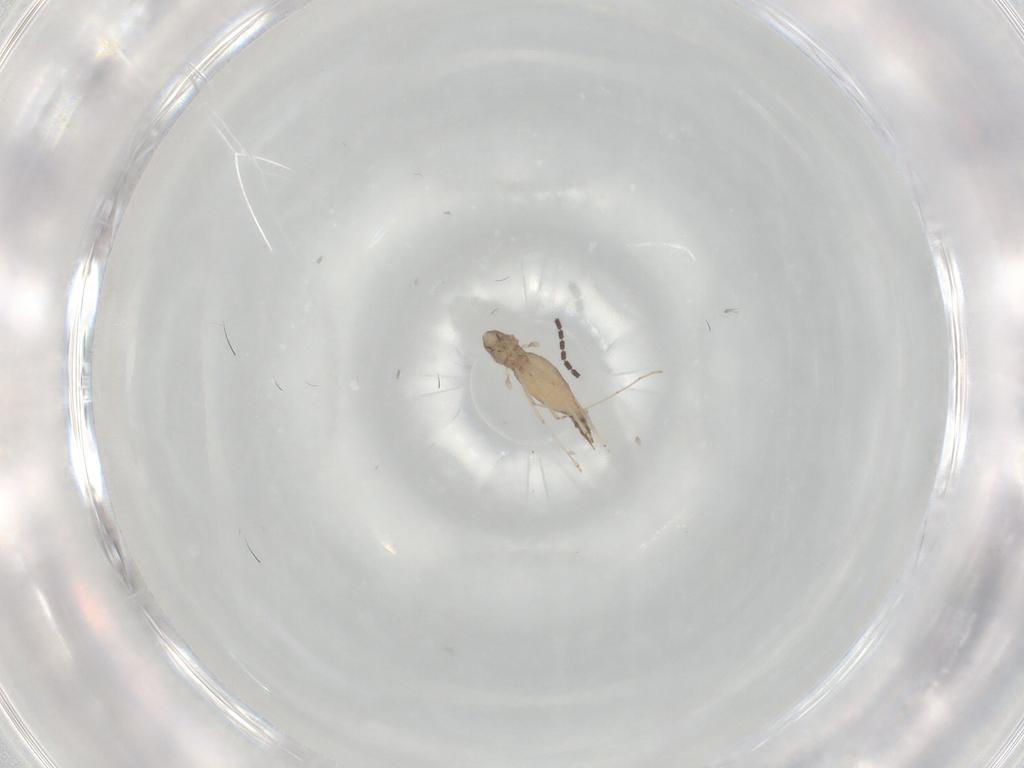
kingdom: Animalia
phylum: Arthropoda
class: Insecta
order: Diptera
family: Cecidomyiidae
